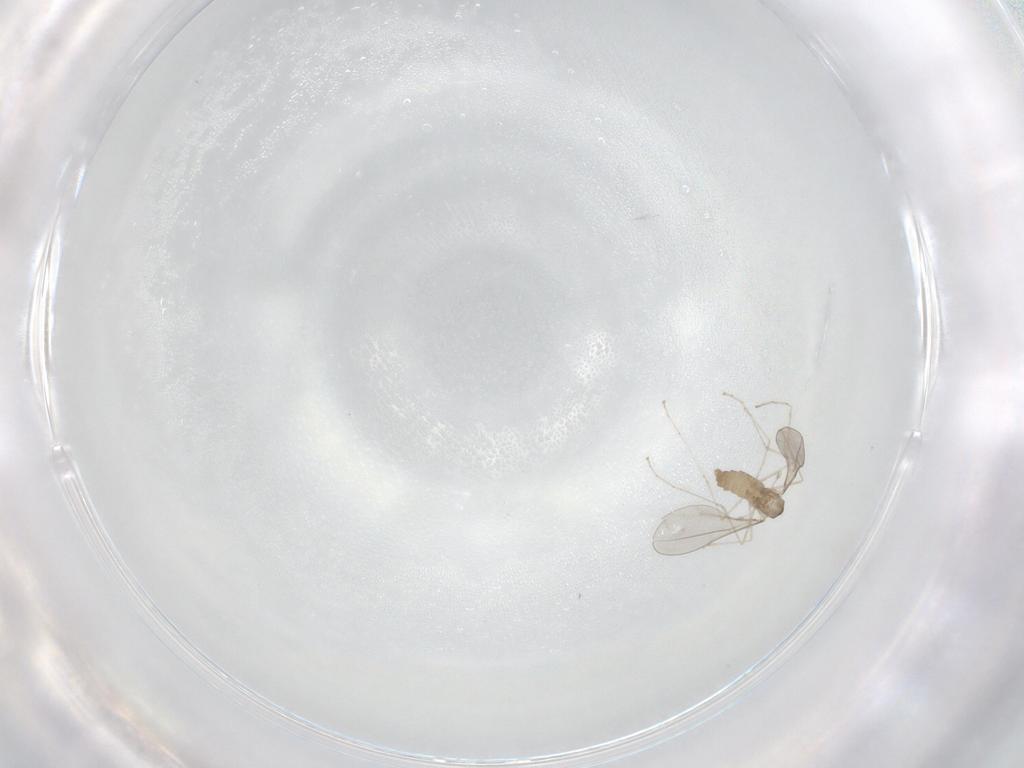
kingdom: Animalia
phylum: Arthropoda
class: Insecta
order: Diptera
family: Cecidomyiidae
